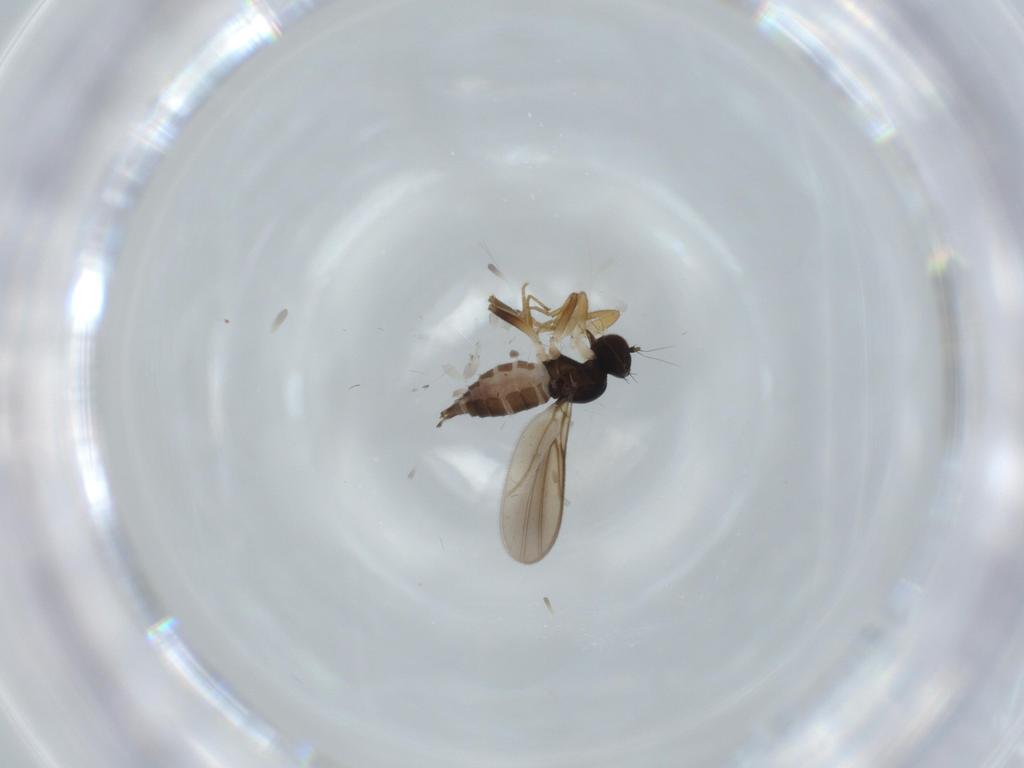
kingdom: Animalia
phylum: Arthropoda
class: Insecta
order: Diptera
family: Hybotidae
